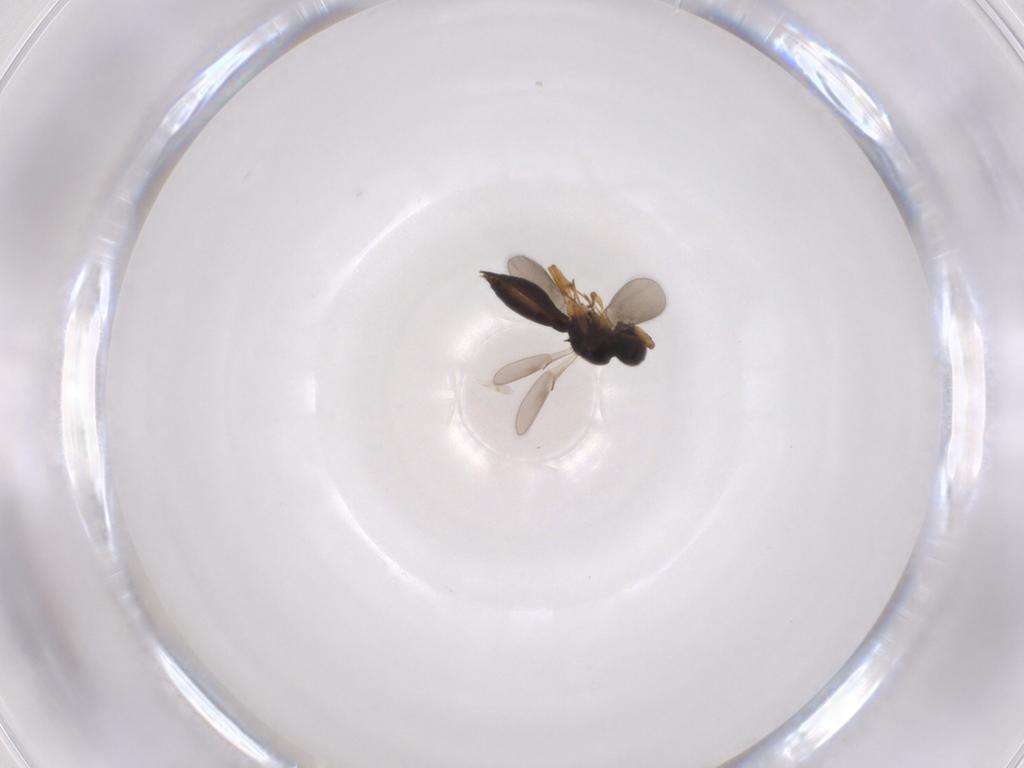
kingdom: Animalia
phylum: Arthropoda
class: Insecta
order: Hymenoptera
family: Scelionidae
